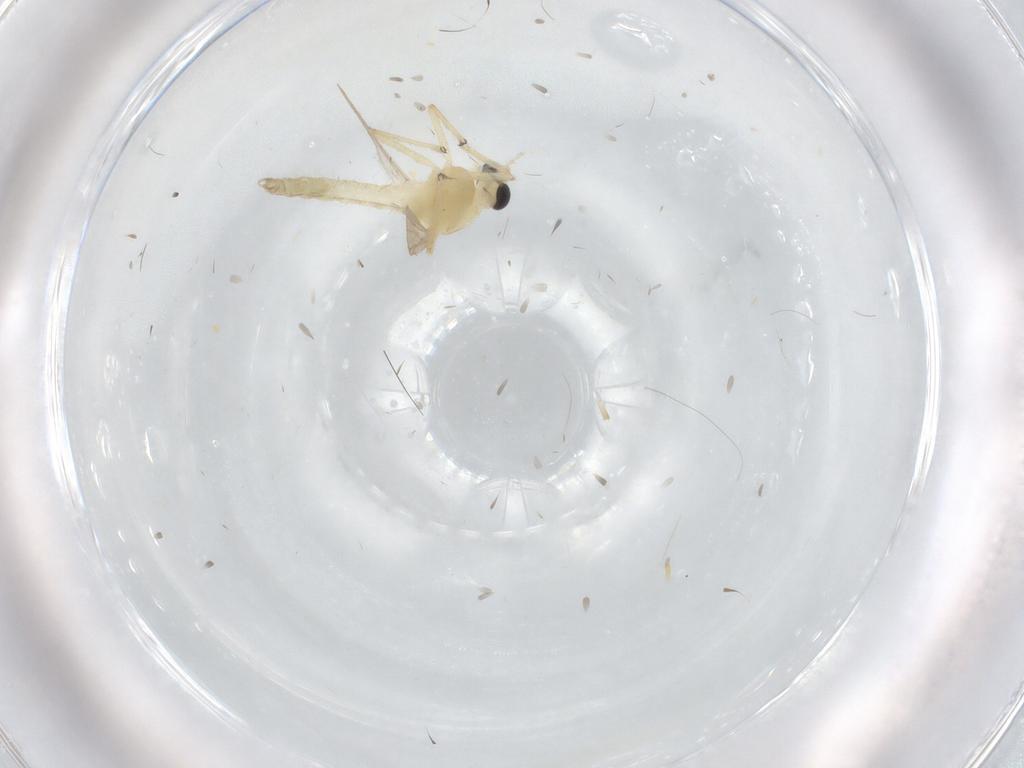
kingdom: Animalia
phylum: Arthropoda
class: Insecta
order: Diptera
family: Chironomidae
